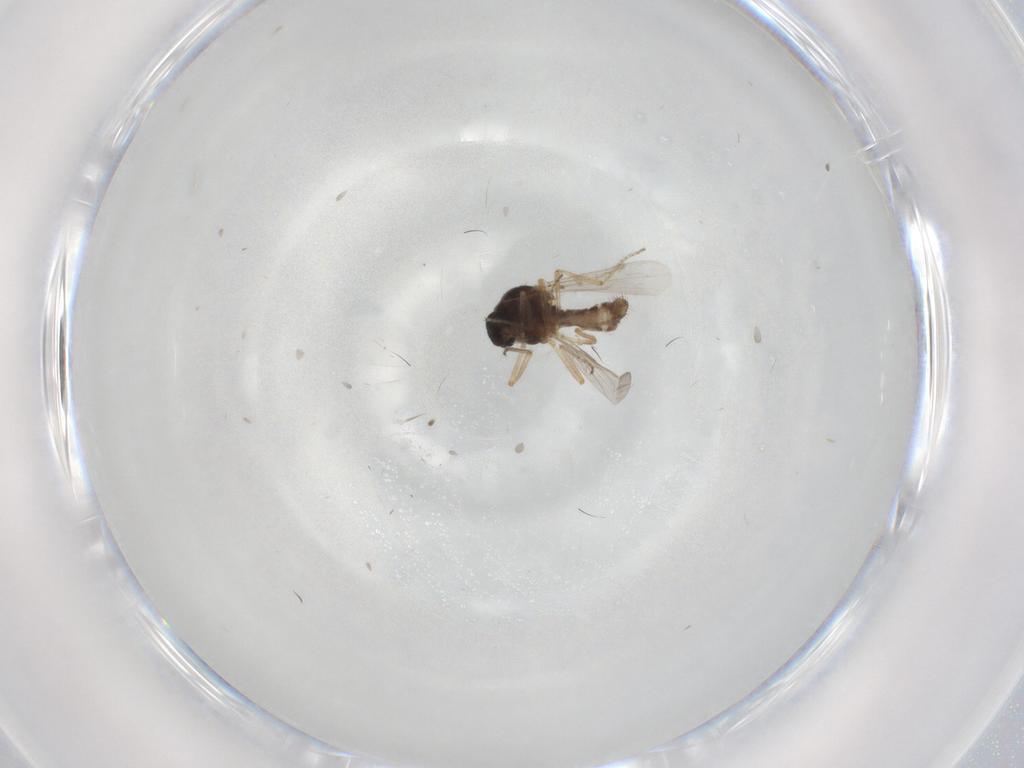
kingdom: Animalia
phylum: Arthropoda
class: Insecta
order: Diptera
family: Ceratopogonidae
